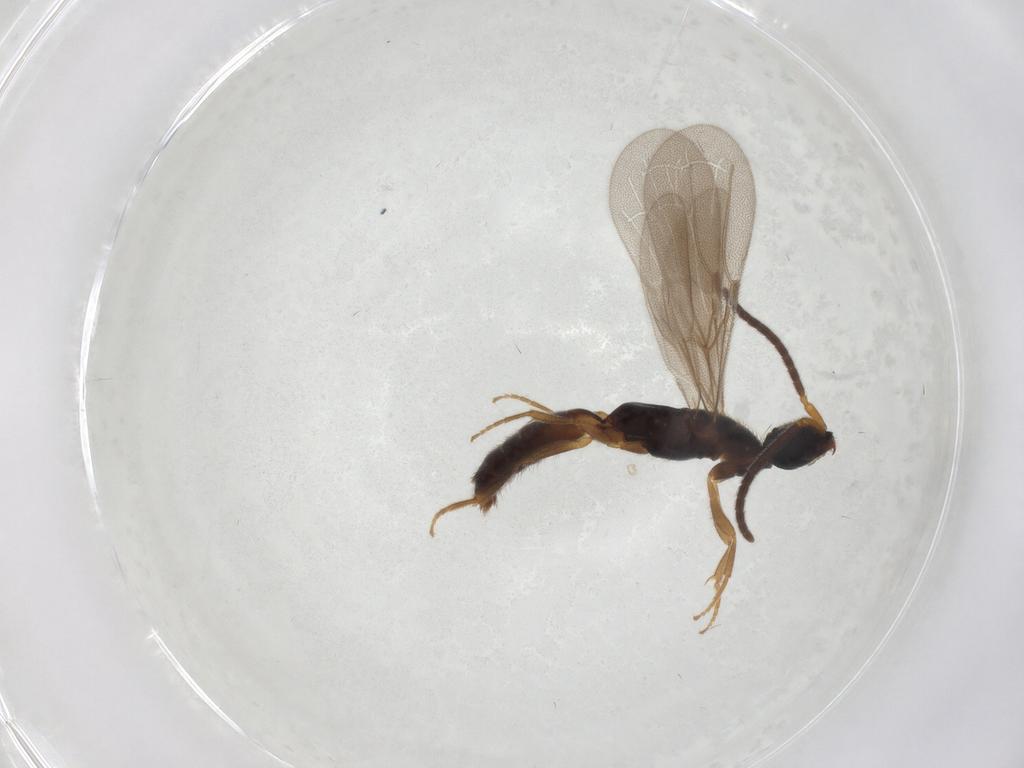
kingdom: Animalia
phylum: Arthropoda
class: Insecta
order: Hymenoptera
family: Bethylidae
